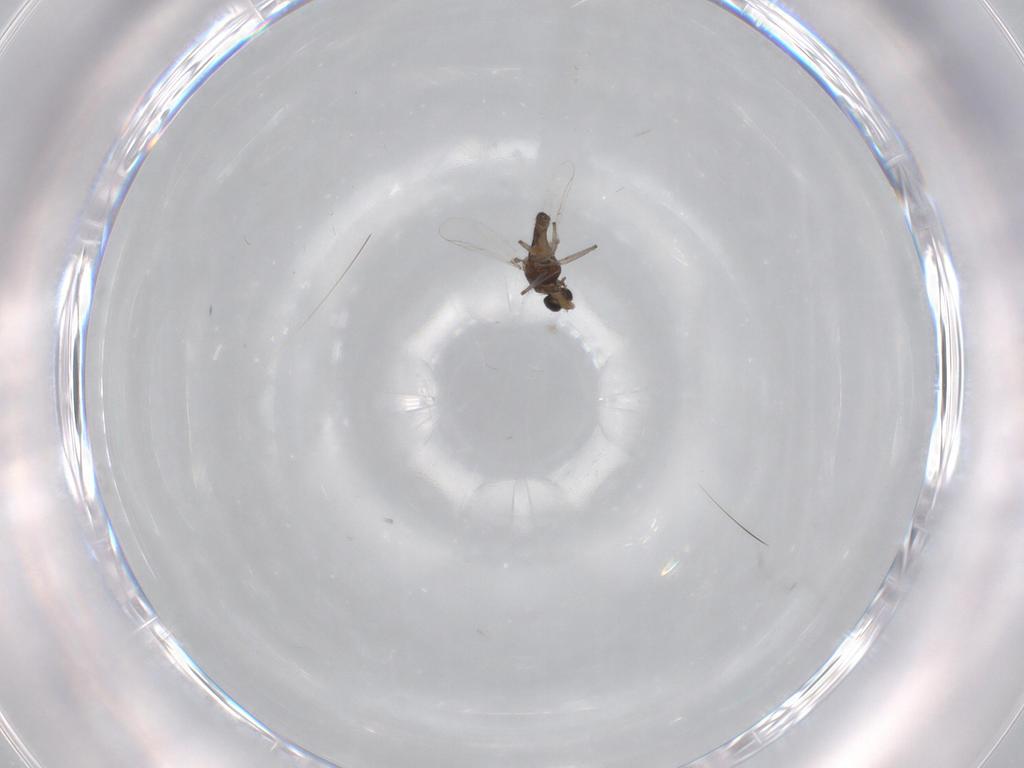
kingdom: Animalia
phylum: Arthropoda
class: Insecta
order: Diptera
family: Chironomidae
